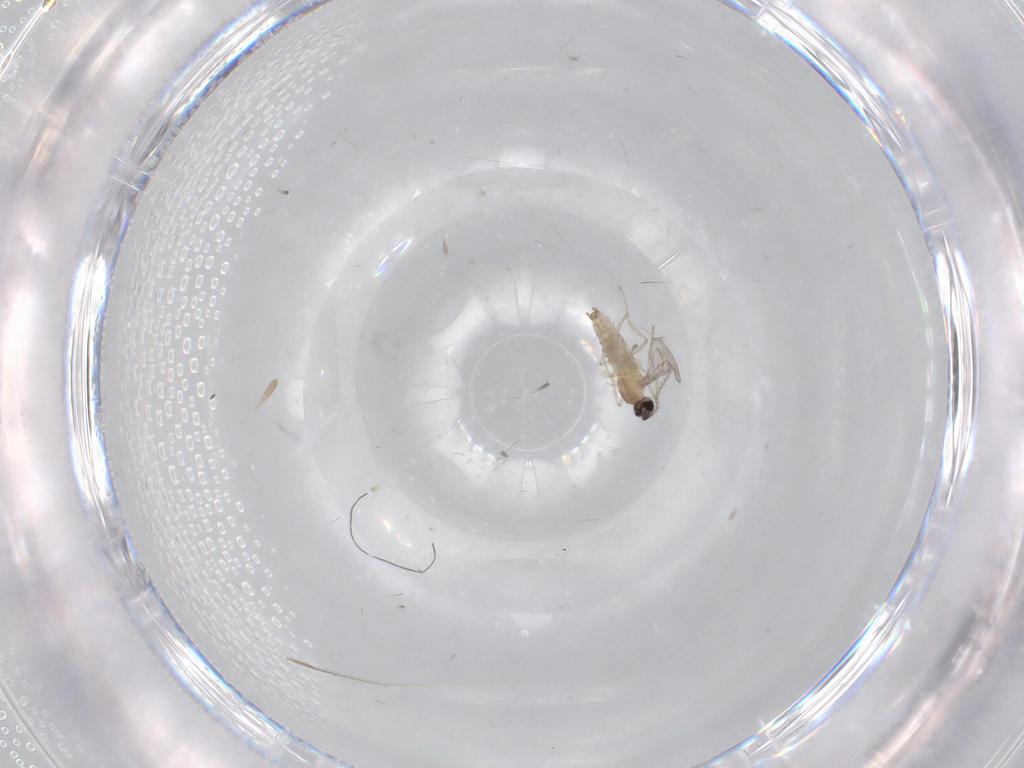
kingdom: Animalia
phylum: Arthropoda
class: Insecta
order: Diptera
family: Cecidomyiidae
